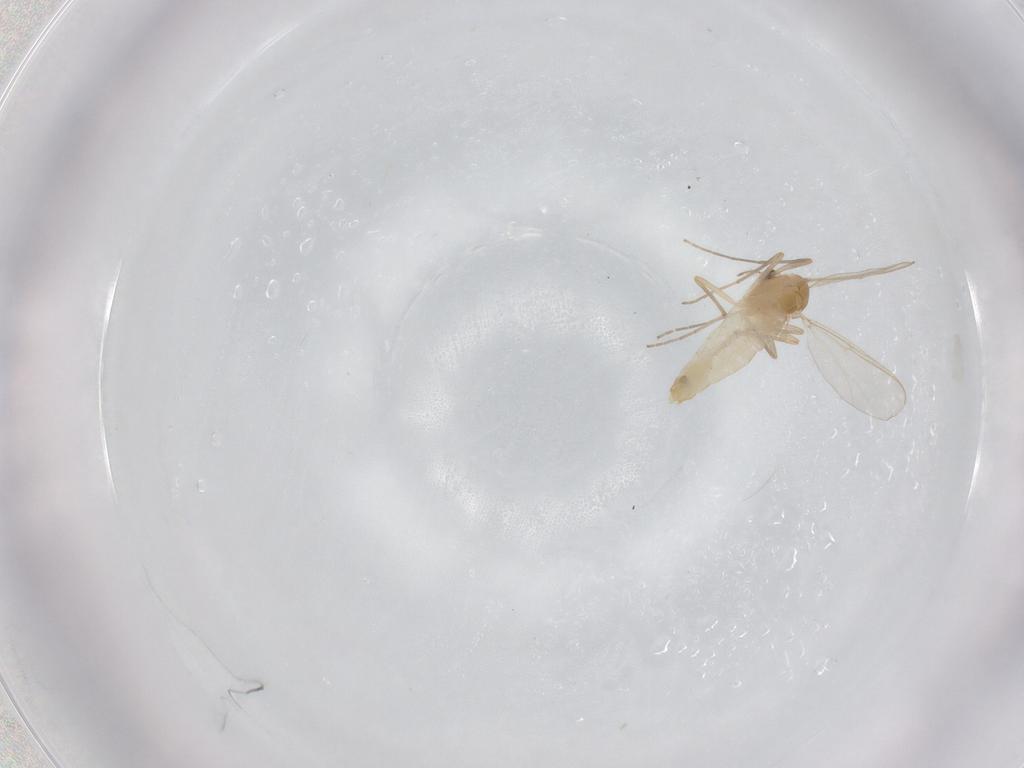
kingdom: Animalia
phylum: Arthropoda
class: Insecta
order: Diptera
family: Chironomidae
